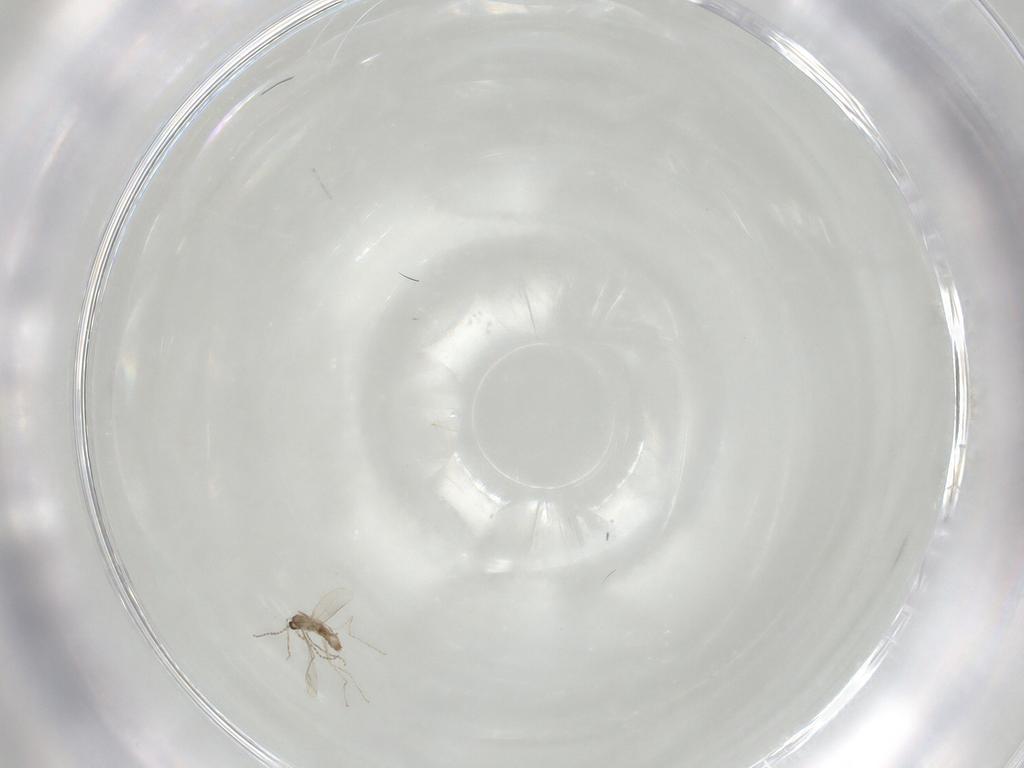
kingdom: Animalia
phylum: Arthropoda
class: Insecta
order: Diptera
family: Cecidomyiidae
